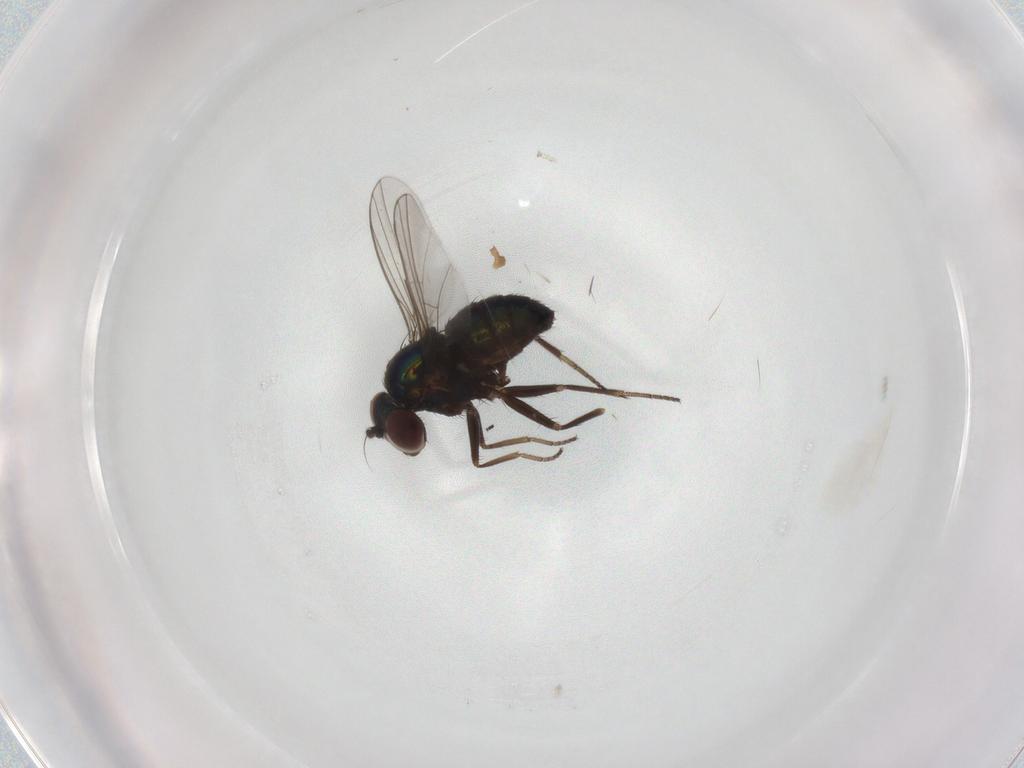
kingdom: Animalia
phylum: Arthropoda
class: Insecta
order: Diptera
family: Dolichopodidae
